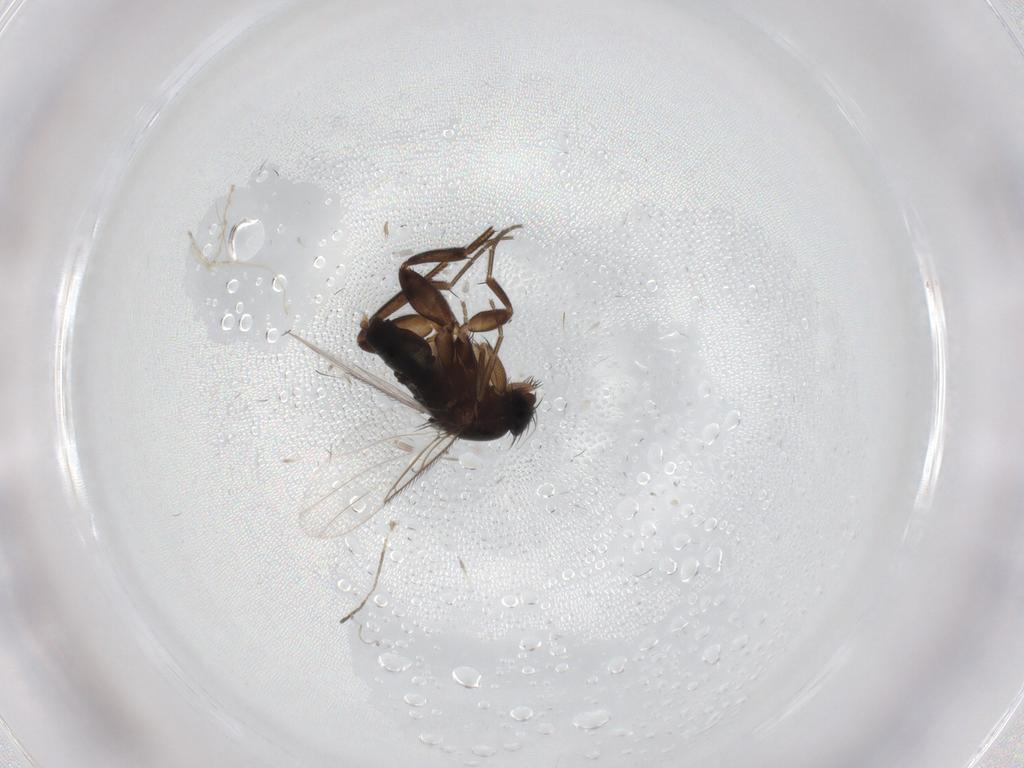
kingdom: Animalia
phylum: Arthropoda
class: Insecta
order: Diptera
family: Phoridae
